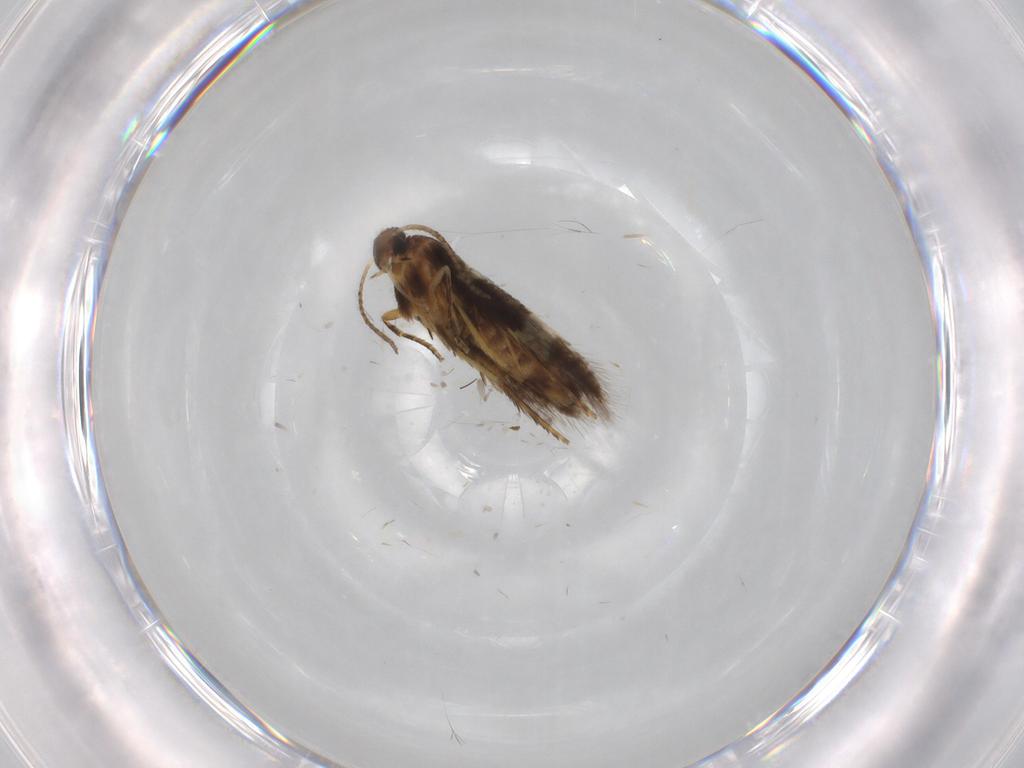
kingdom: Animalia
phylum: Arthropoda
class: Insecta
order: Lepidoptera
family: Heliozelidae
